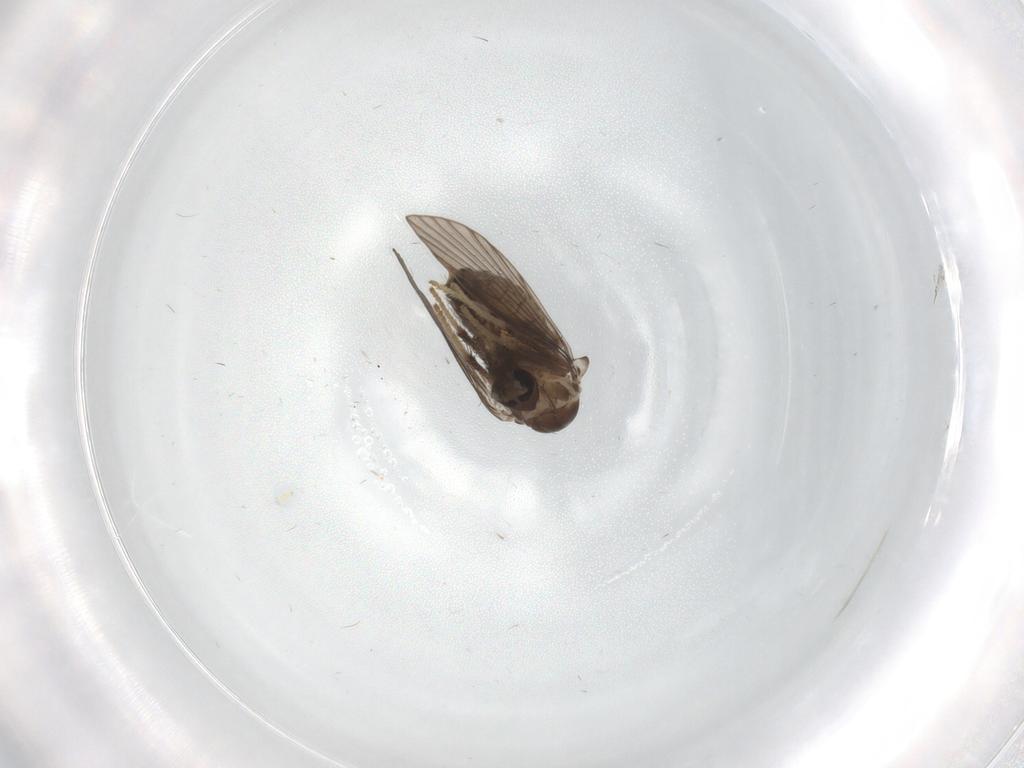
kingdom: Animalia
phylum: Arthropoda
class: Insecta
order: Diptera
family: Psychodidae
